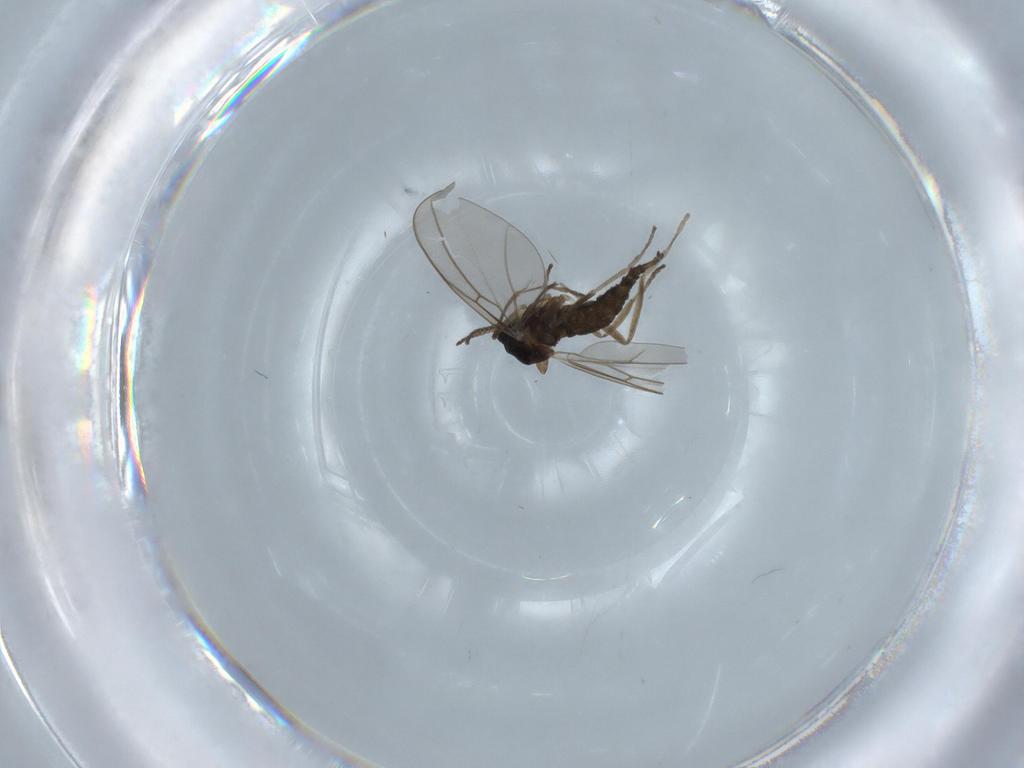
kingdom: Animalia
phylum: Arthropoda
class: Insecta
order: Diptera
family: Cecidomyiidae
